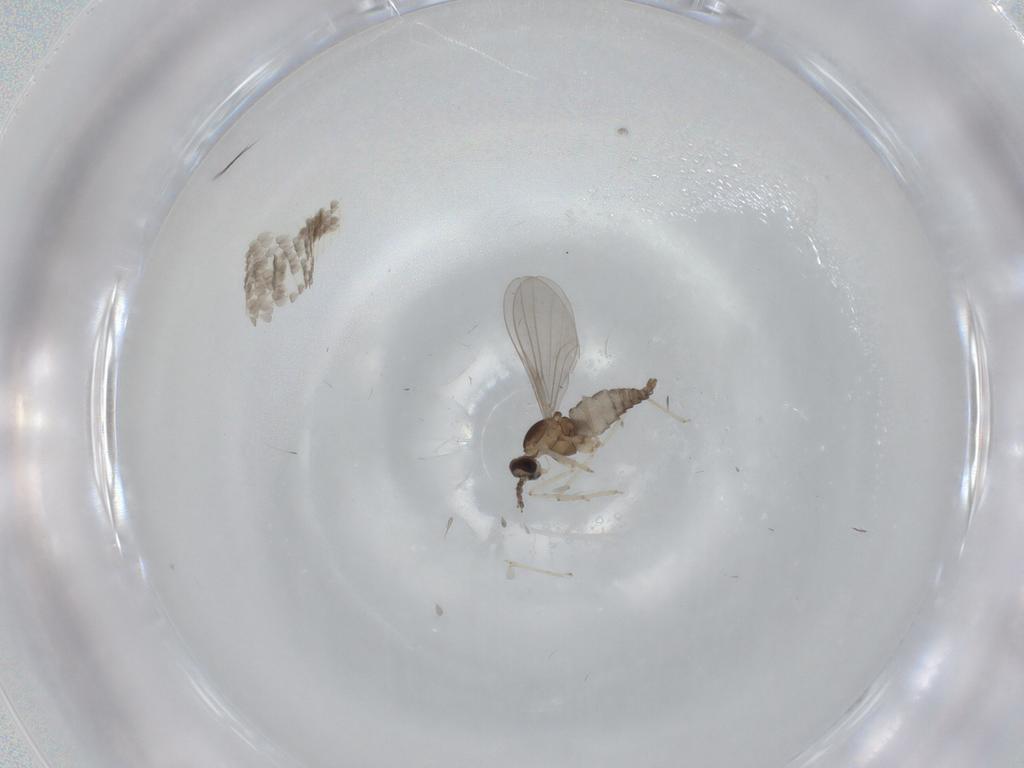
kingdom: Animalia
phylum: Arthropoda
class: Insecta
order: Diptera
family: Cecidomyiidae
